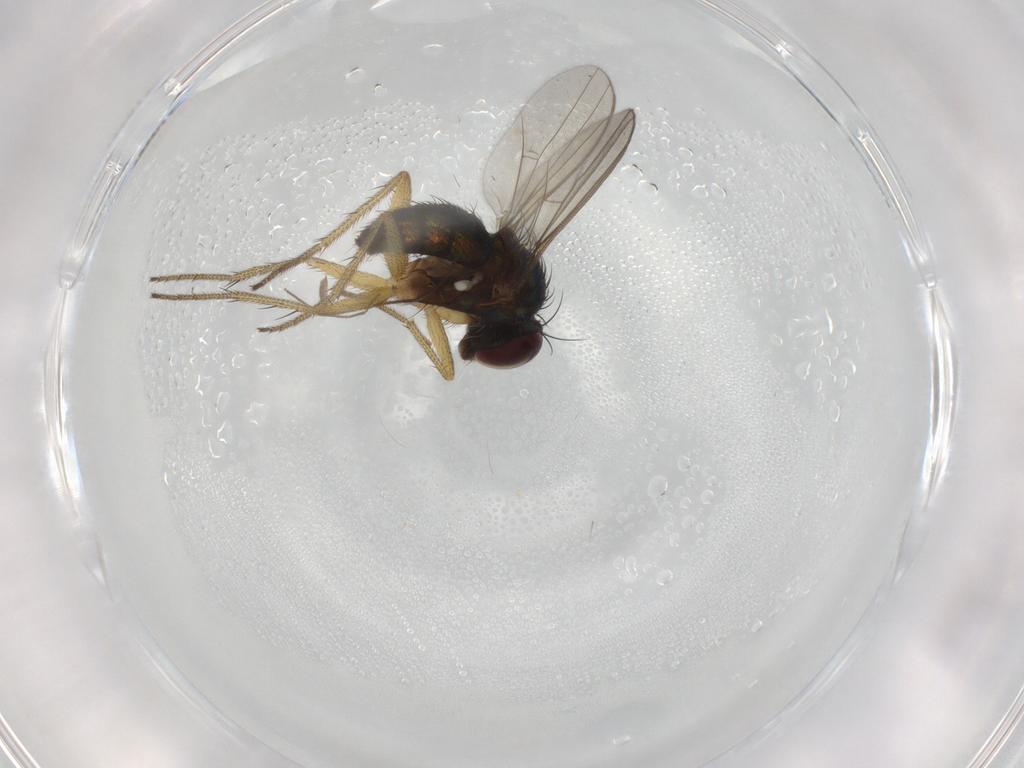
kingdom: Animalia
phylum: Arthropoda
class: Insecta
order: Diptera
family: Dolichopodidae
